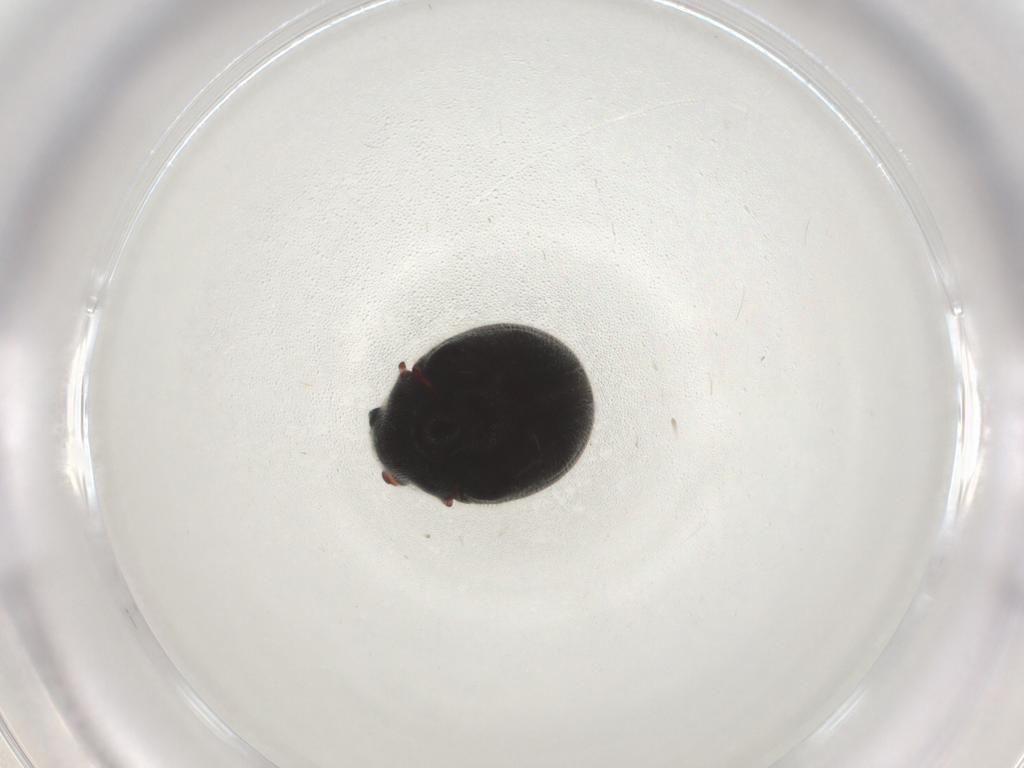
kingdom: Animalia
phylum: Arthropoda
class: Insecta
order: Coleoptera
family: Ptinidae
